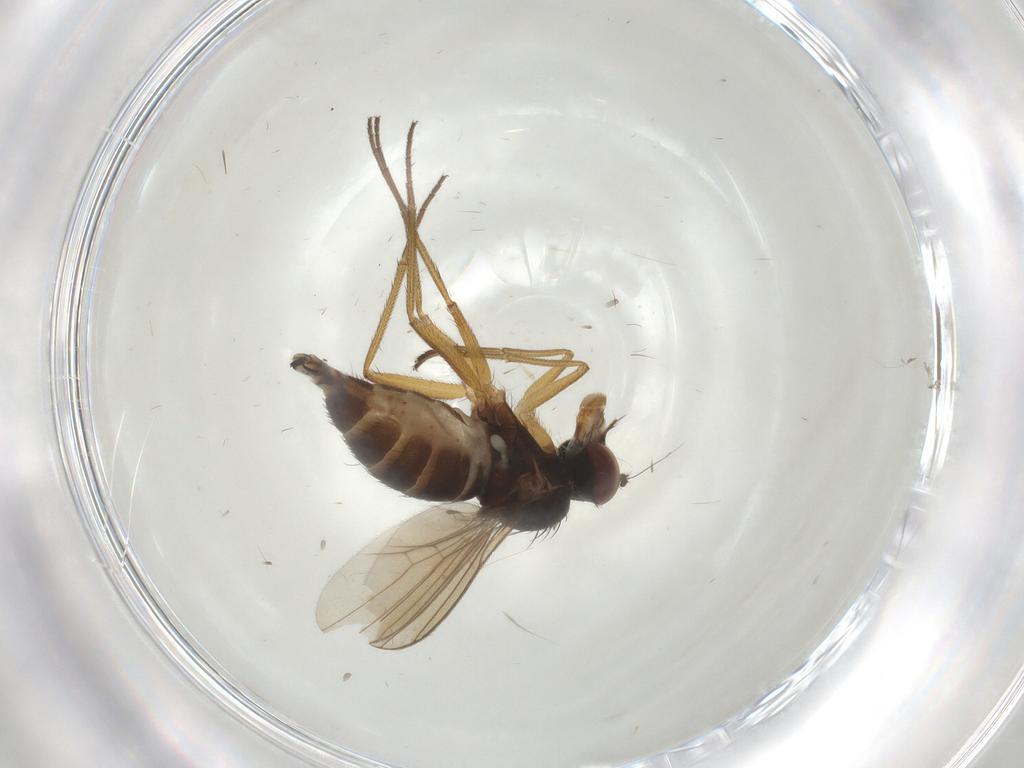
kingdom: Animalia
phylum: Arthropoda
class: Insecta
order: Diptera
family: Dolichopodidae
